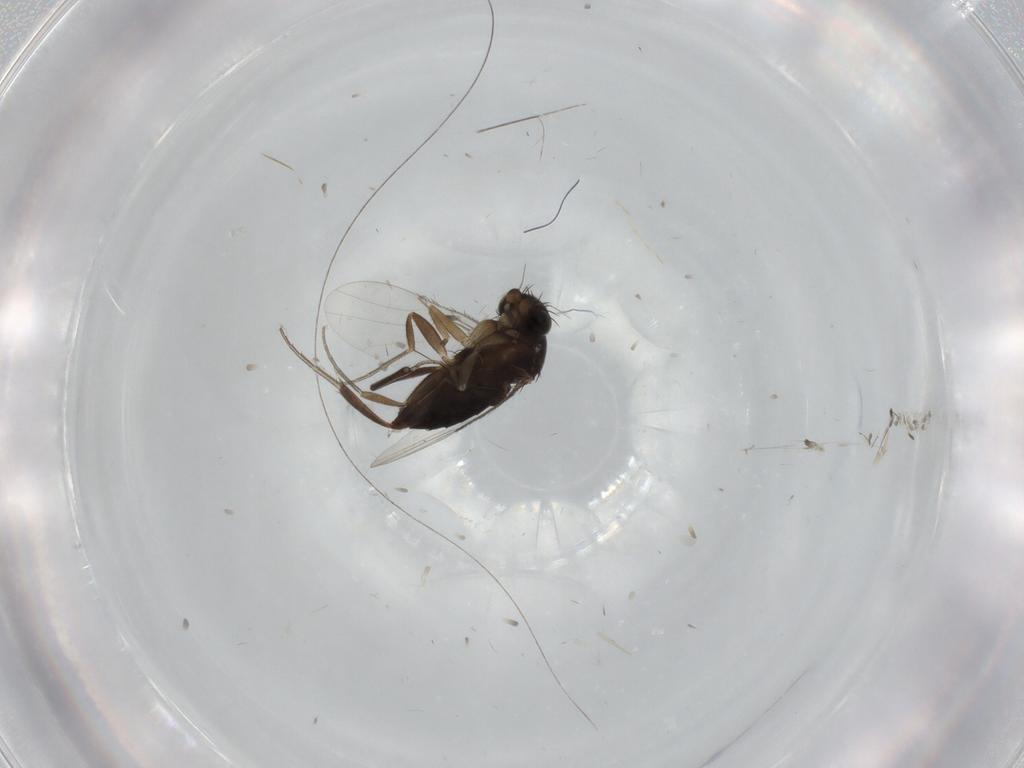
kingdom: Animalia
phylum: Arthropoda
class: Insecta
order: Diptera
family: Phoridae
